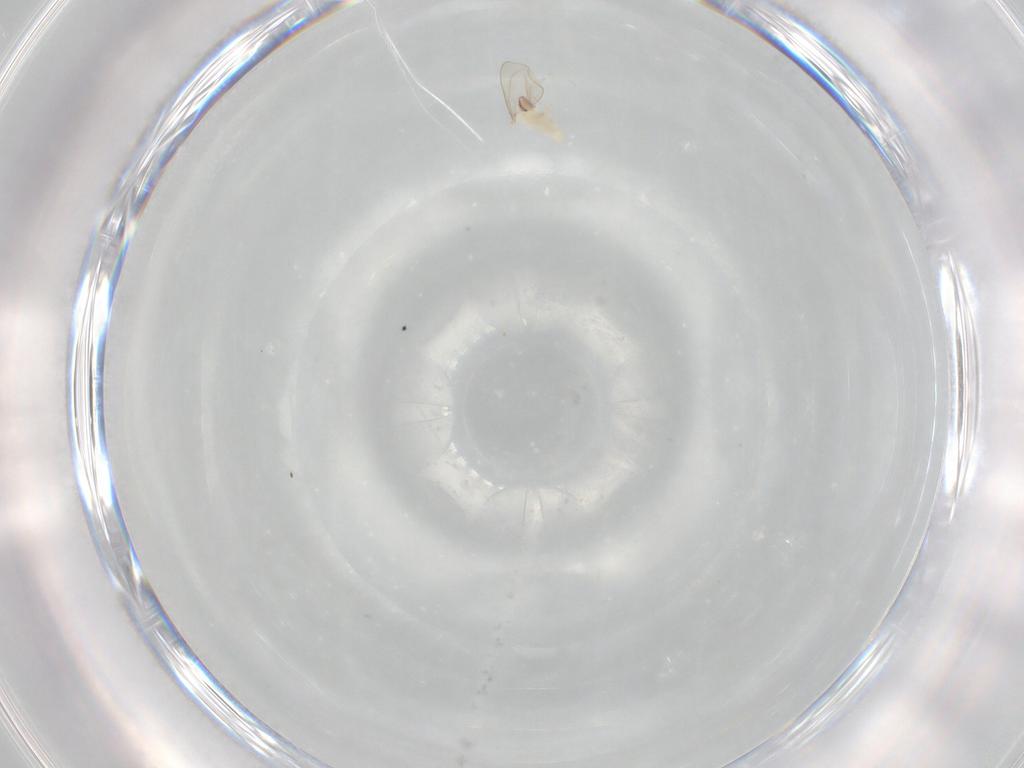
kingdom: Animalia
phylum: Arthropoda
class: Insecta
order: Diptera
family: Cecidomyiidae
